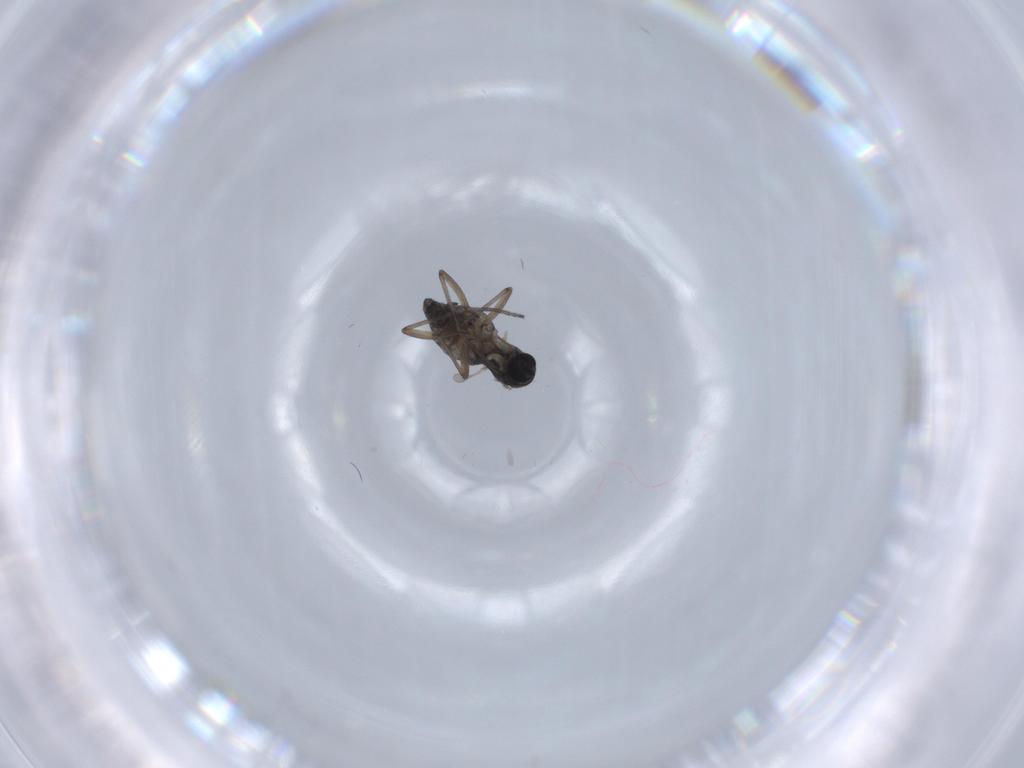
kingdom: Animalia
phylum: Arthropoda
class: Insecta
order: Diptera
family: Sciaridae
